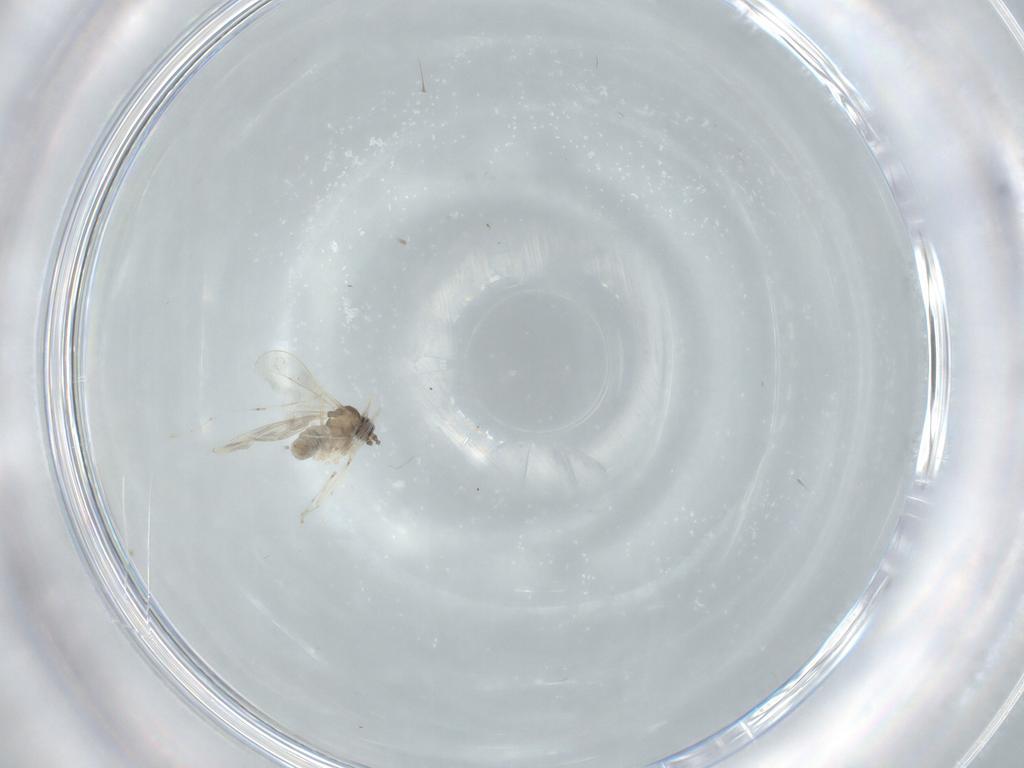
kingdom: Animalia
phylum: Arthropoda
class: Insecta
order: Diptera
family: Cecidomyiidae
